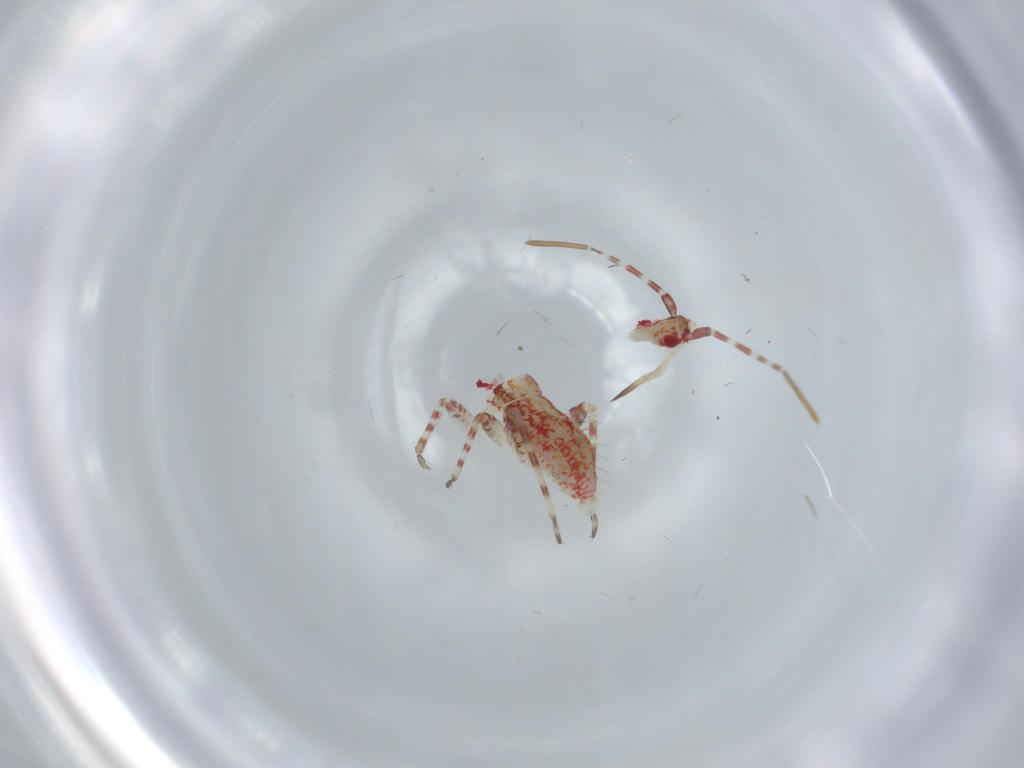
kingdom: Animalia
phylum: Arthropoda
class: Insecta
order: Hemiptera
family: Miridae
